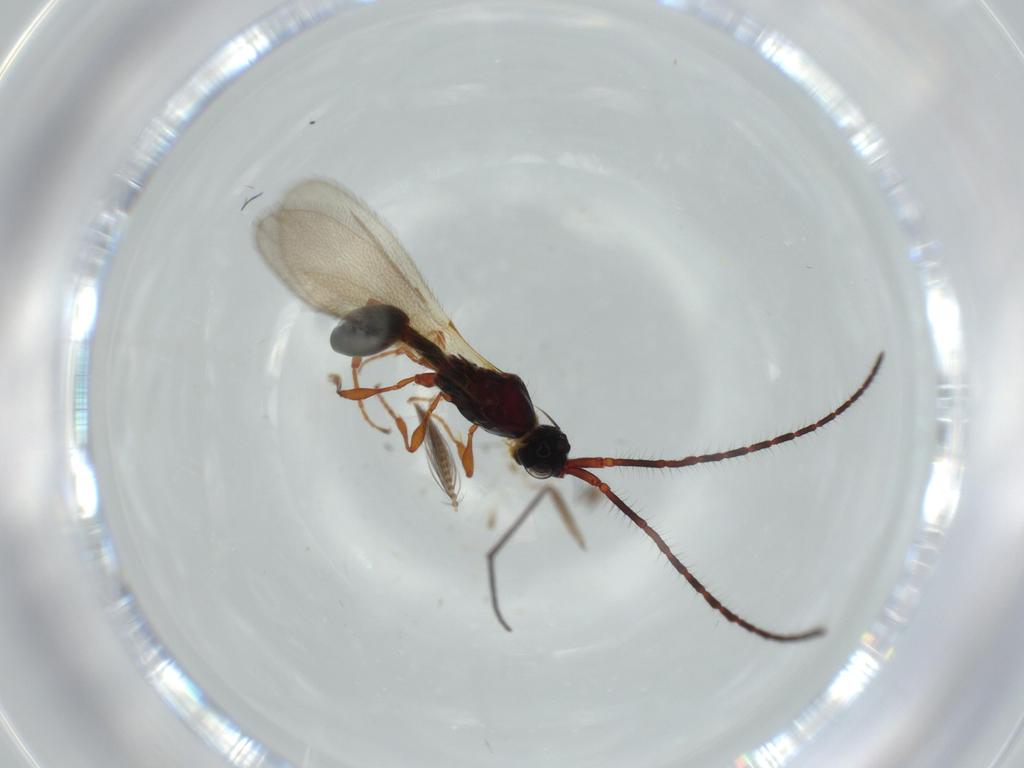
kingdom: Animalia
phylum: Arthropoda
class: Insecta
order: Hymenoptera
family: Diapriidae
